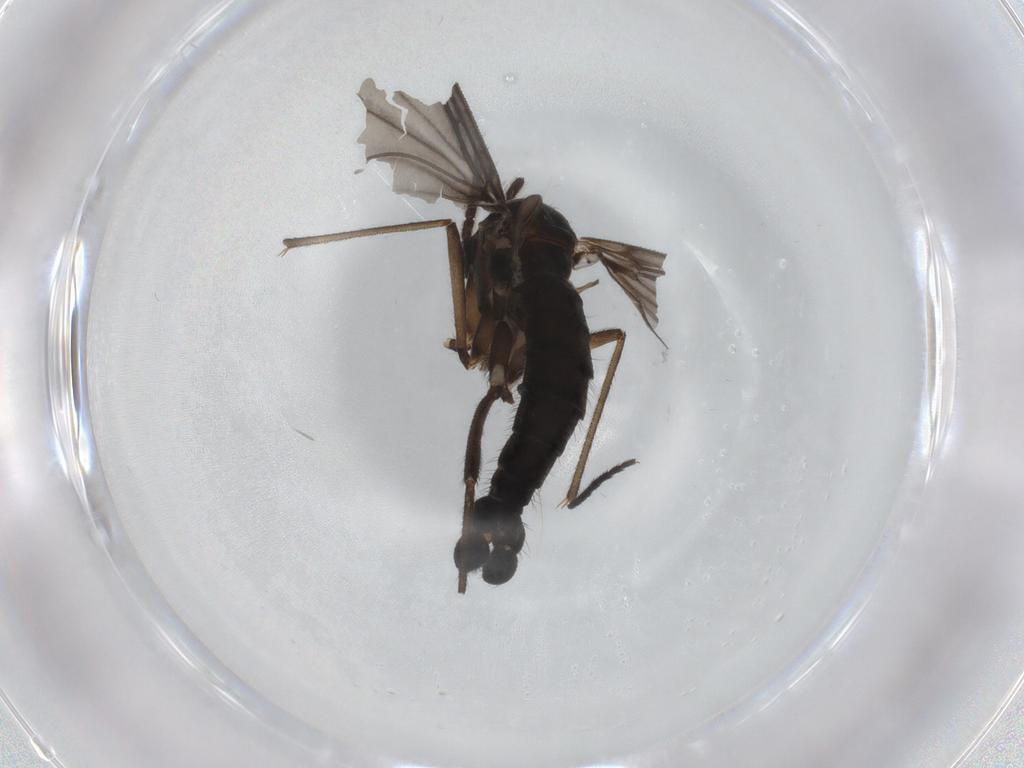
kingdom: Animalia
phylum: Arthropoda
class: Insecta
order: Diptera
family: Sciaridae
